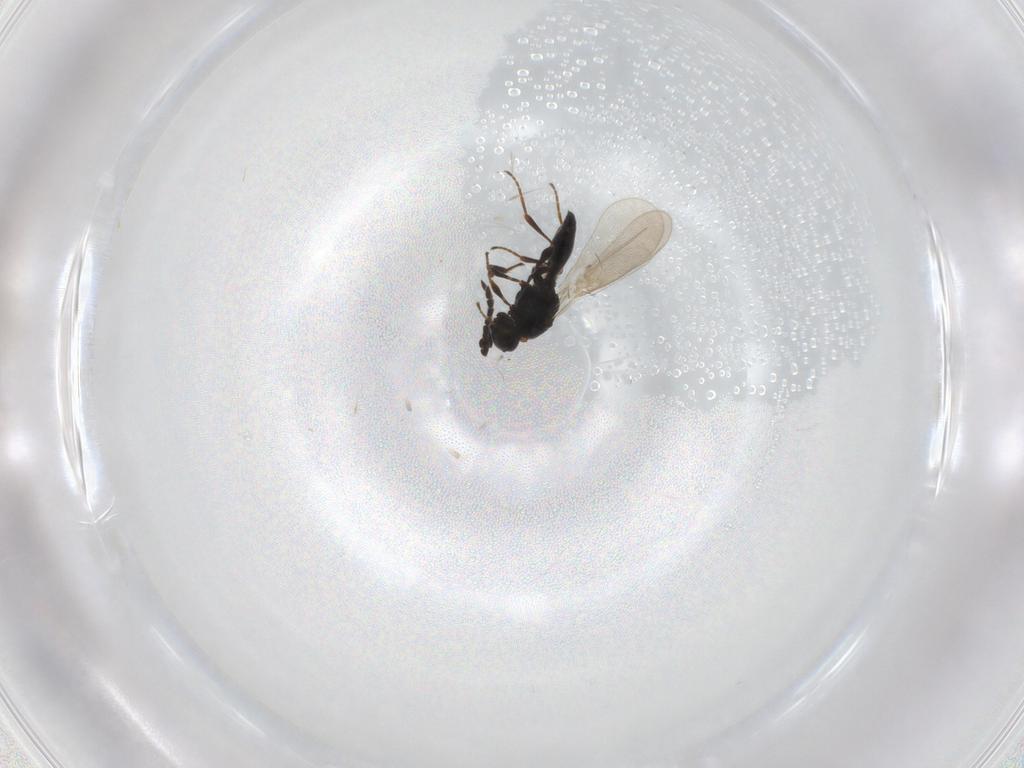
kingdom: Animalia
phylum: Arthropoda
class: Insecta
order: Hymenoptera
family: Platygastridae
